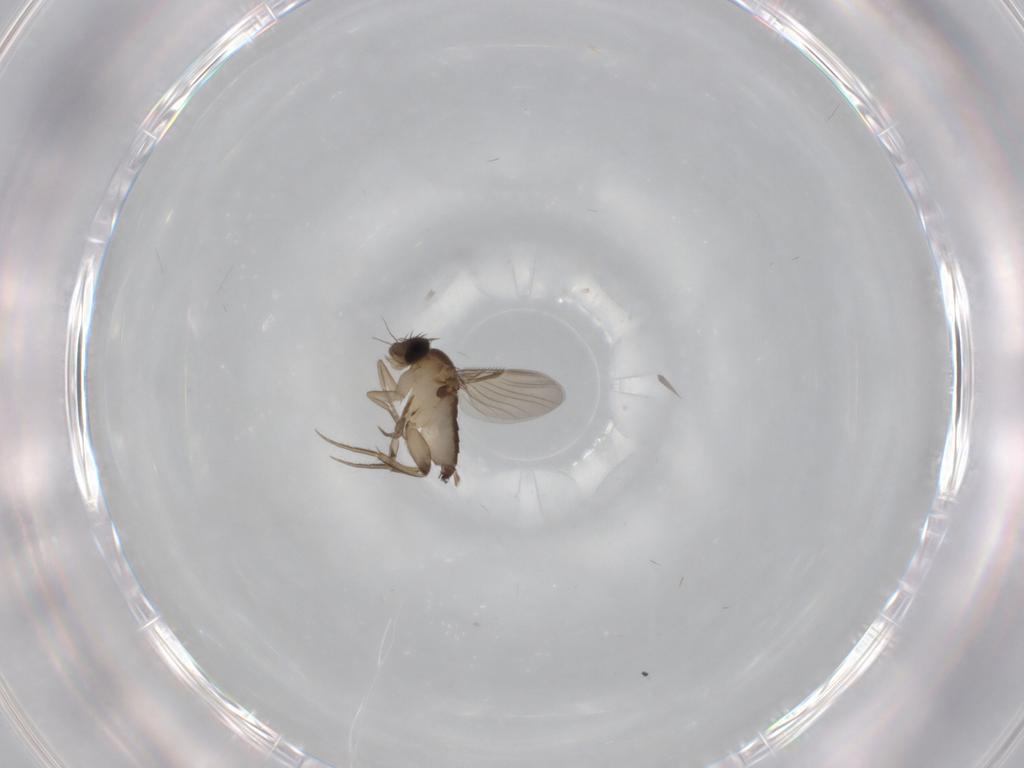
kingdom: Animalia
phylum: Arthropoda
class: Insecta
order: Diptera
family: Phoridae
